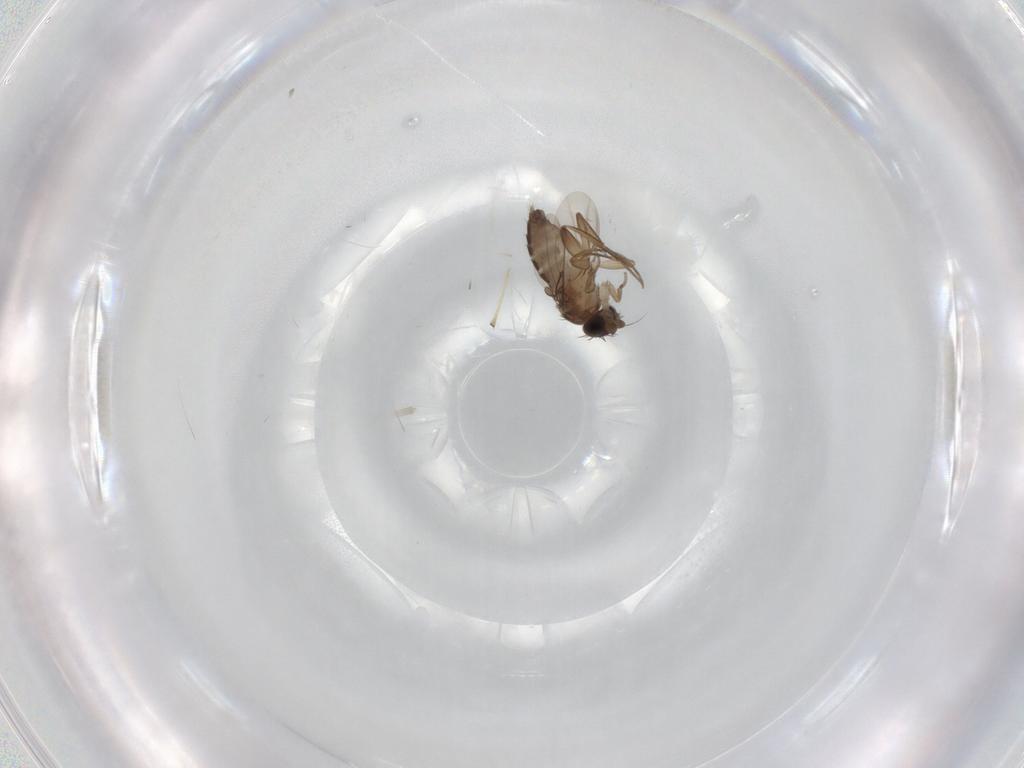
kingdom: Animalia
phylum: Arthropoda
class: Insecta
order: Diptera
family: Phoridae
